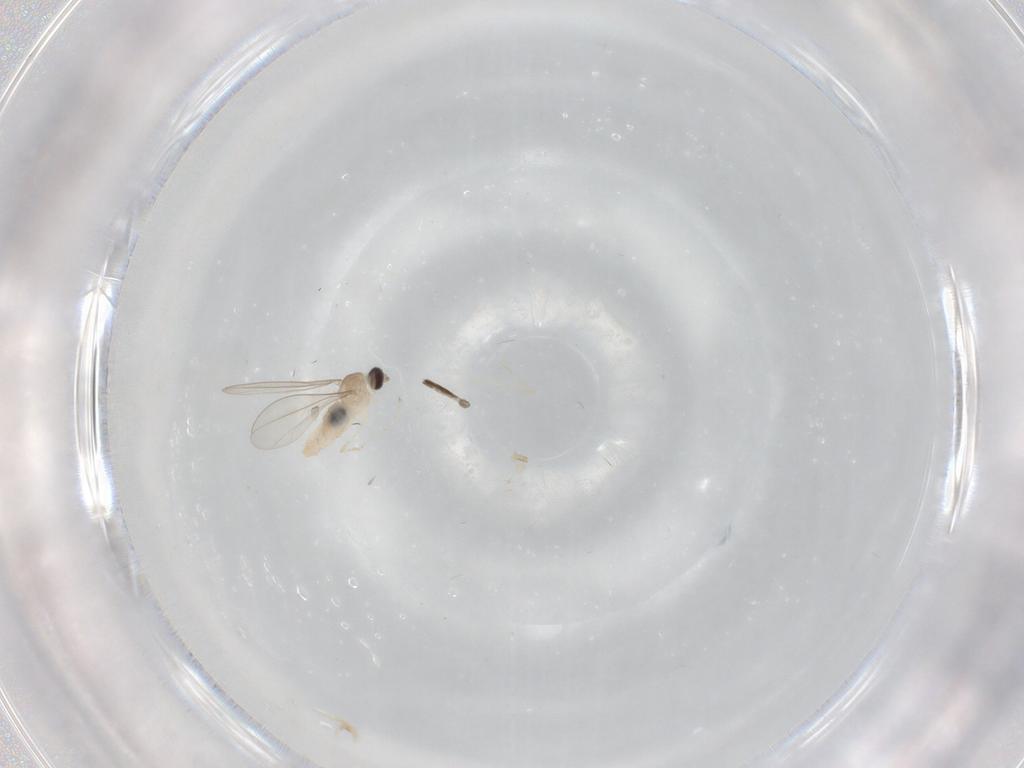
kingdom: Animalia
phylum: Arthropoda
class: Insecta
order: Diptera
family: Cecidomyiidae
